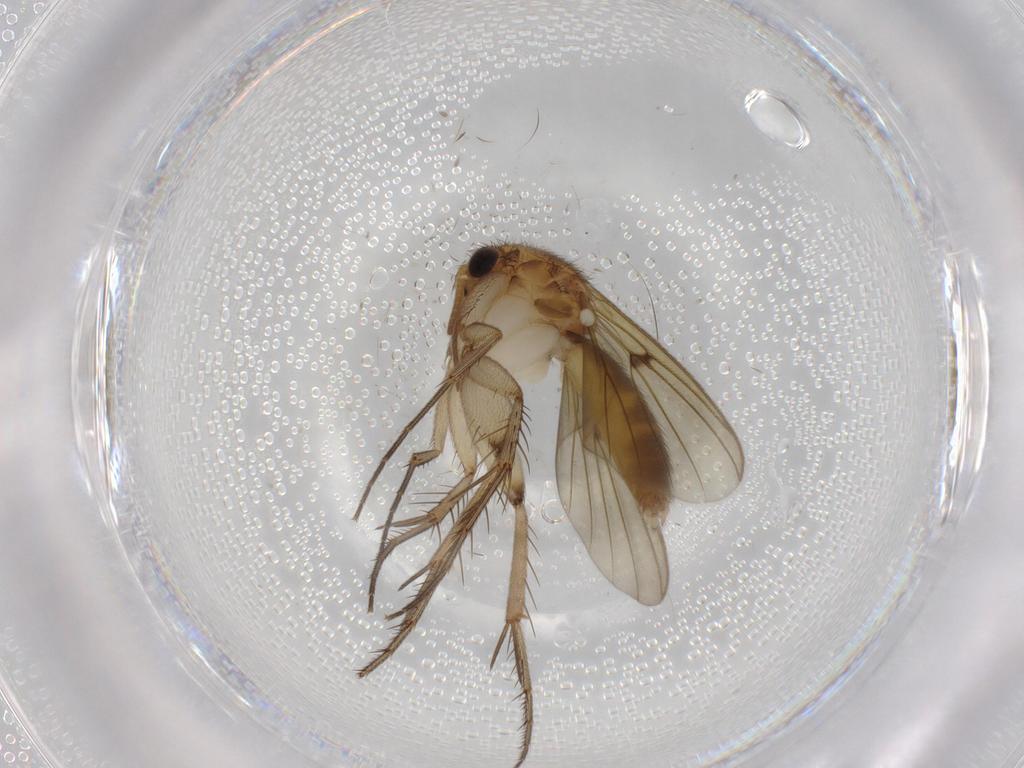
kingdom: Animalia
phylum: Arthropoda
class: Insecta
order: Diptera
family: Mycetophilidae
